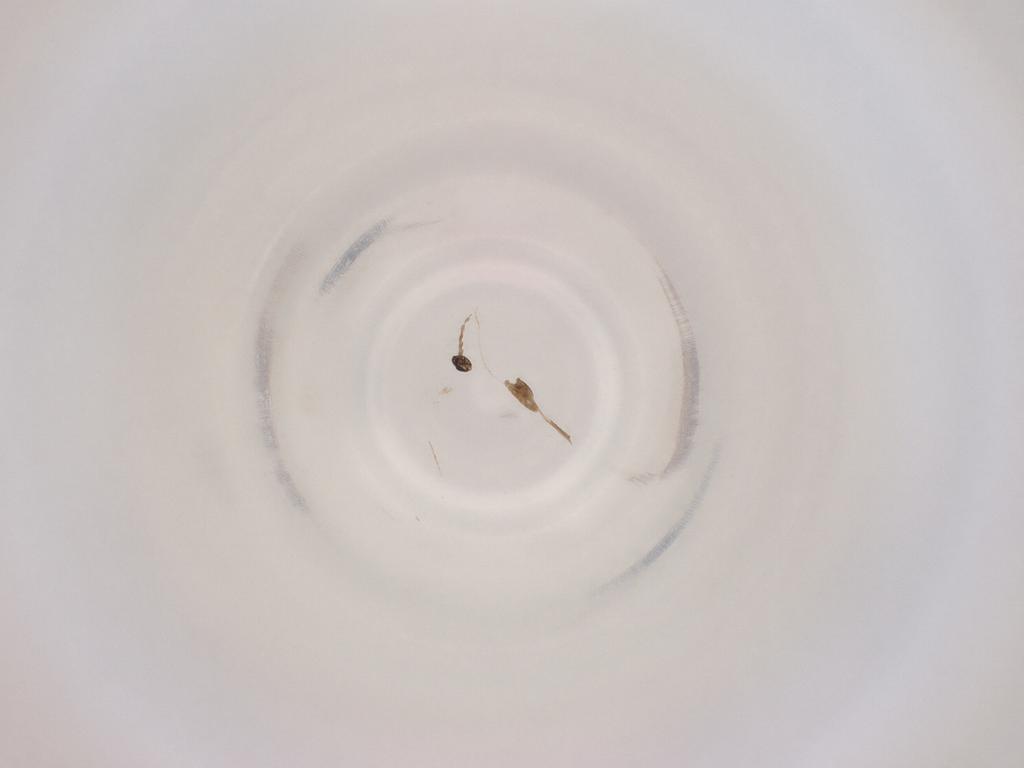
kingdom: Animalia
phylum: Arthropoda
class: Insecta
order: Diptera
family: Cecidomyiidae
